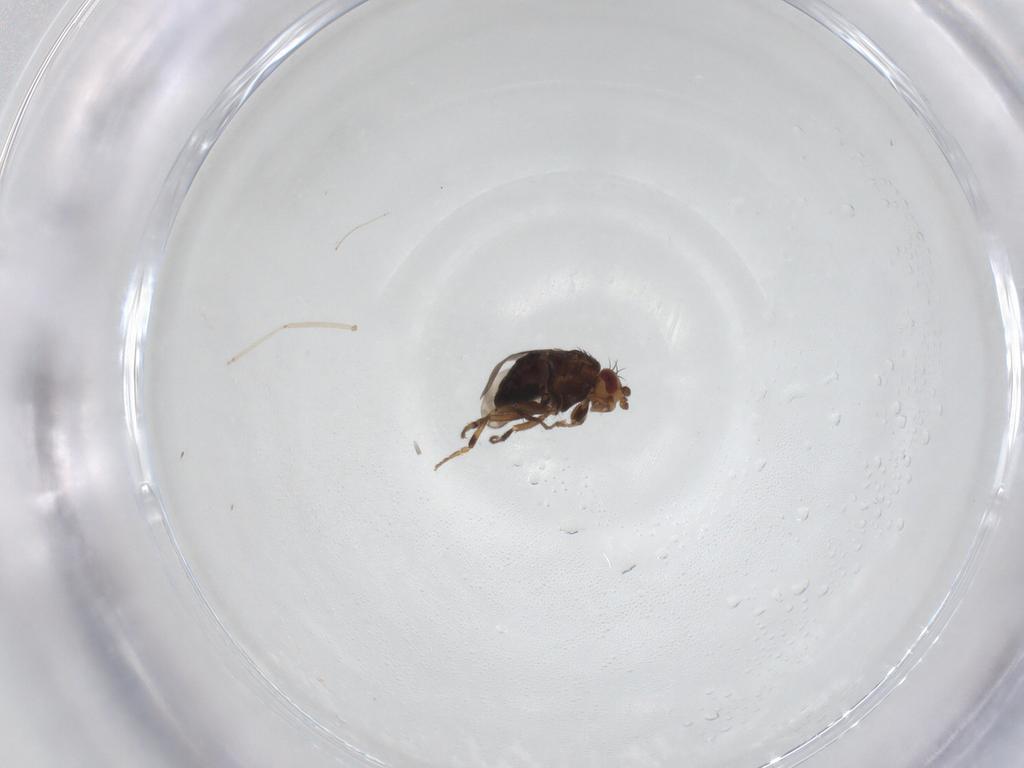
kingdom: Animalia
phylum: Arthropoda
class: Insecta
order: Diptera
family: Sphaeroceridae
